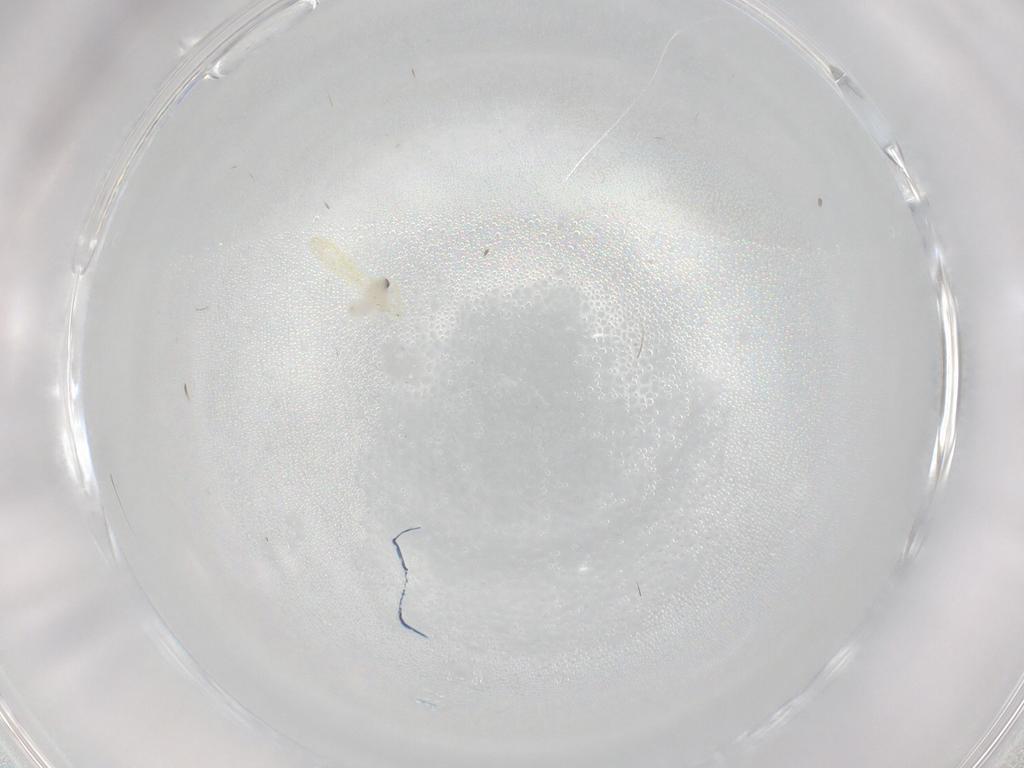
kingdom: Animalia
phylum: Arthropoda
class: Insecta
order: Hemiptera
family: Aleyrodidae
